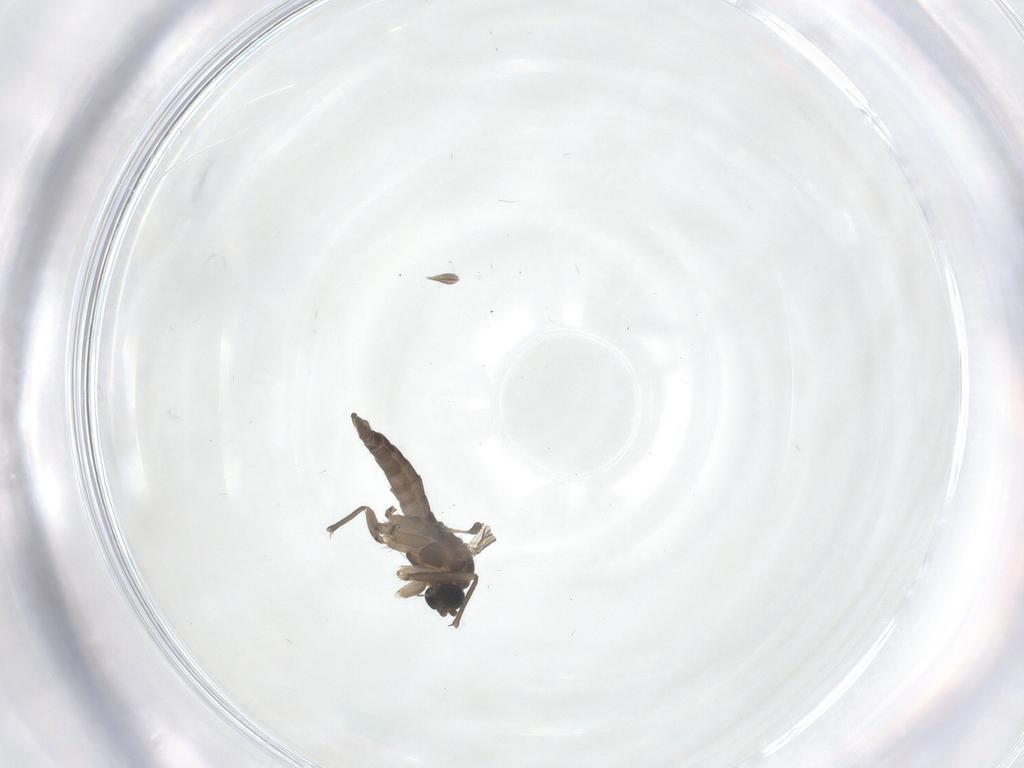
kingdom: Animalia
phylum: Arthropoda
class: Insecta
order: Diptera
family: Sciaridae
